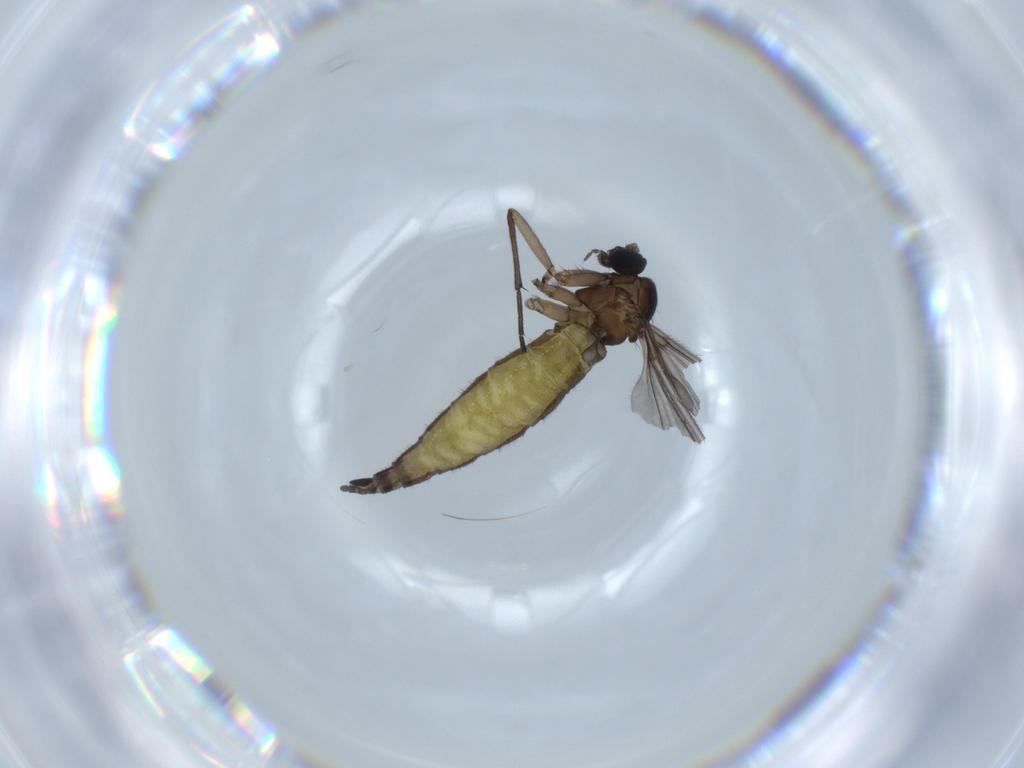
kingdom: Animalia
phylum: Arthropoda
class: Insecta
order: Diptera
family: Sciaridae
